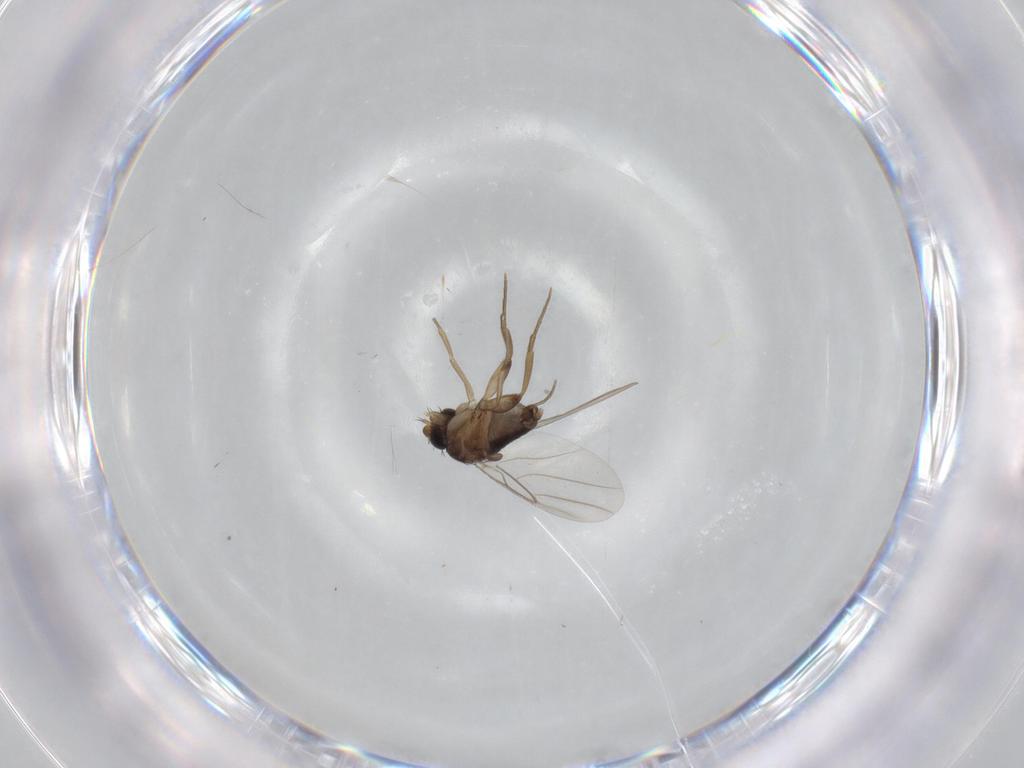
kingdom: Animalia
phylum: Arthropoda
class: Insecta
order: Diptera
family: Phoridae
